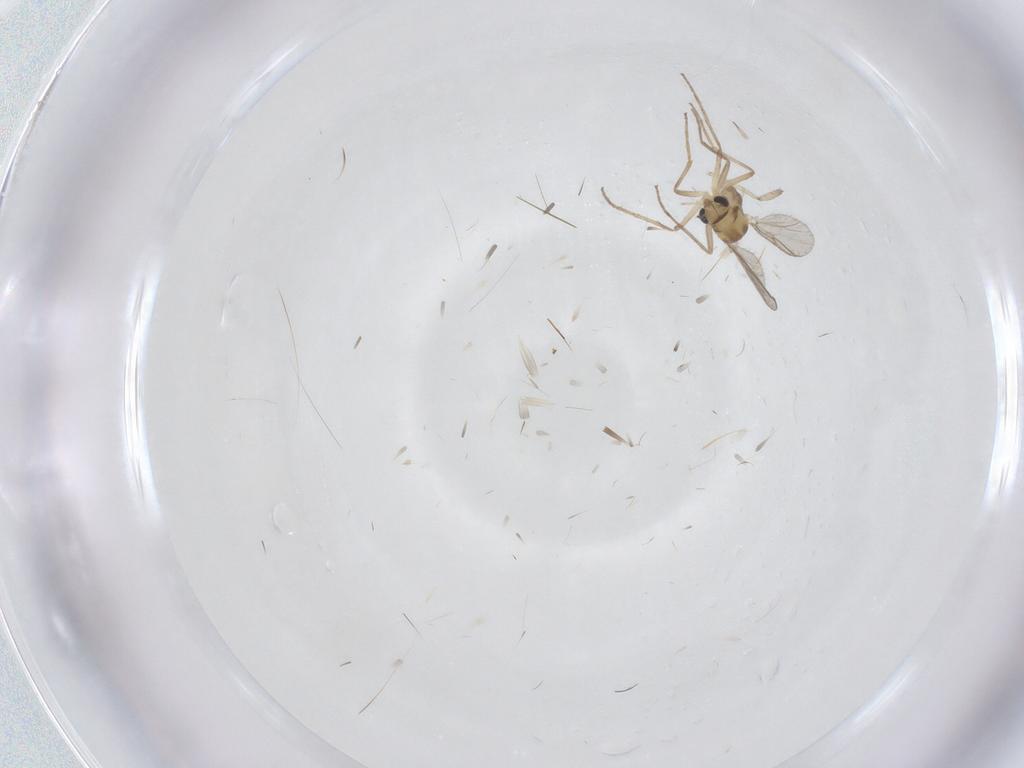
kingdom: Animalia
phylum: Arthropoda
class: Insecta
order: Diptera
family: Chironomidae
